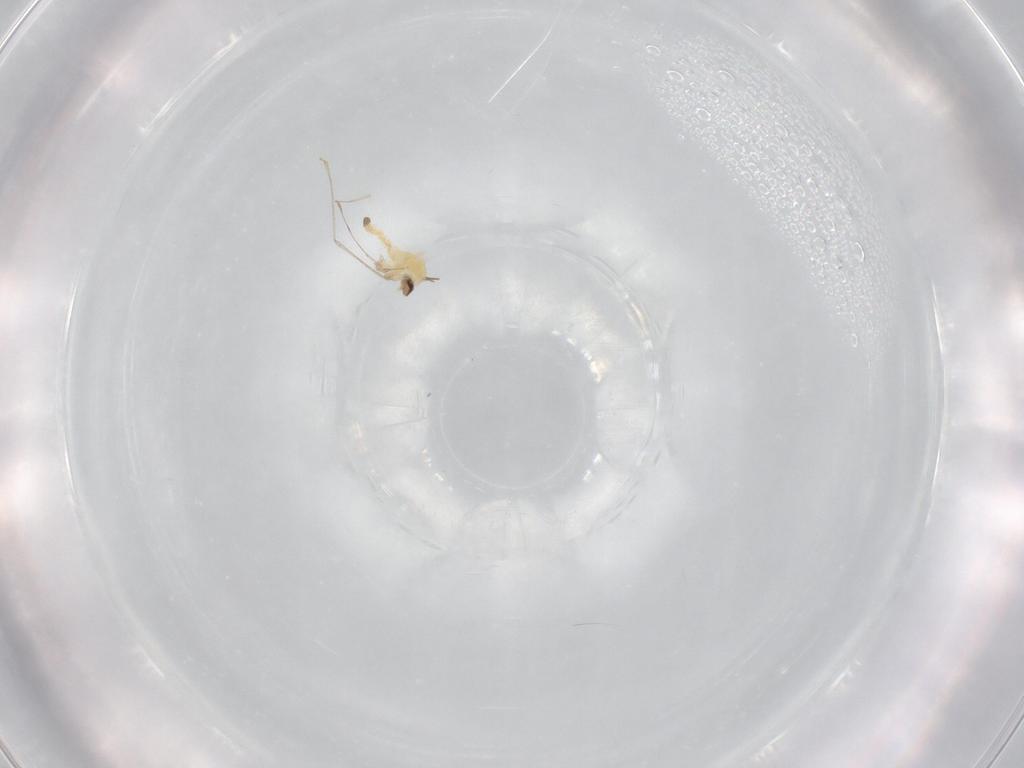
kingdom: Animalia
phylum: Arthropoda
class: Insecta
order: Diptera
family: Cecidomyiidae
